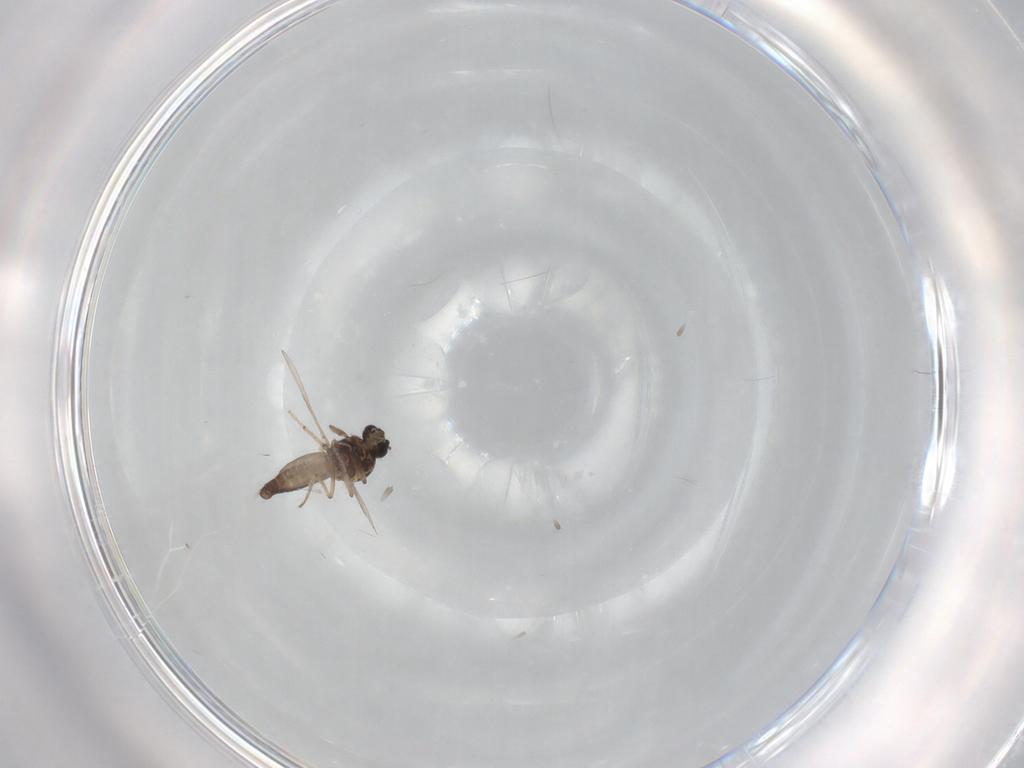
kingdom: Animalia
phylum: Arthropoda
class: Insecta
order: Diptera
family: Ceratopogonidae
